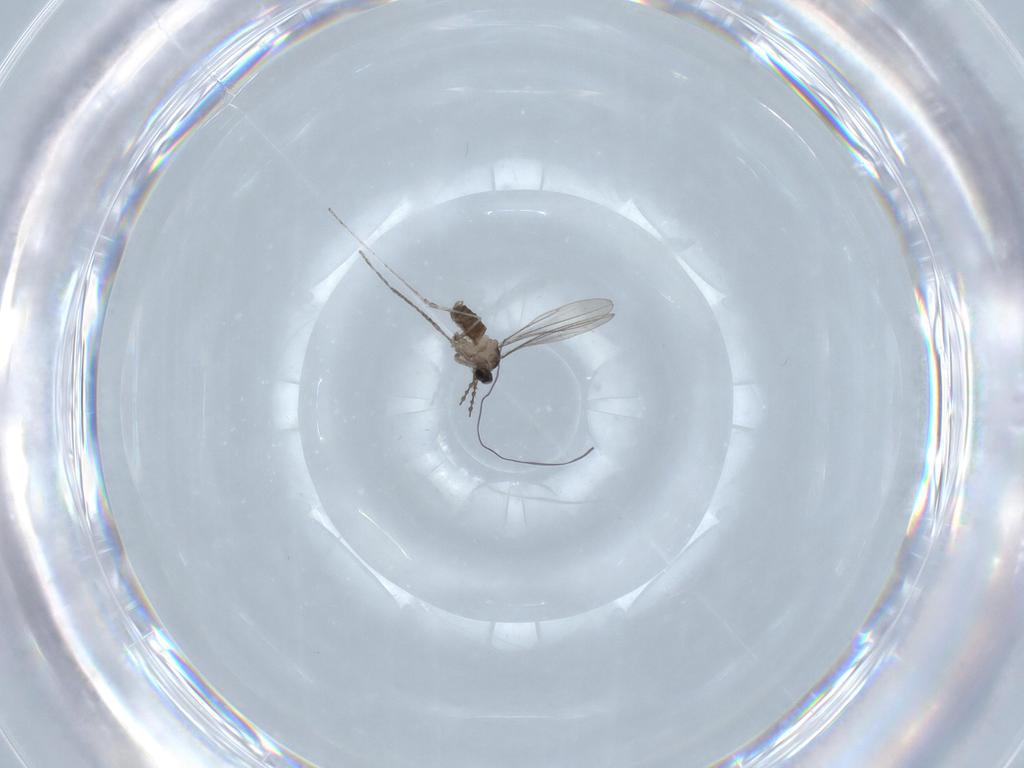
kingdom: Animalia
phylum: Arthropoda
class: Insecta
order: Diptera
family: Cecidomyiidae
